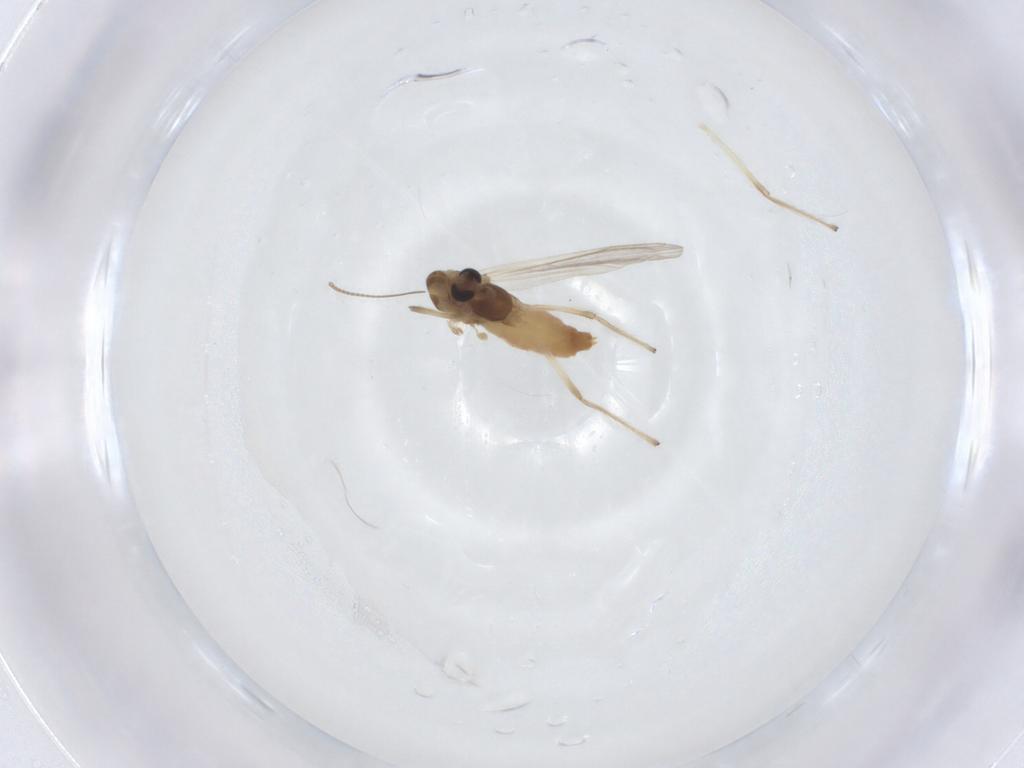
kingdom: Animalia
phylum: Arthropoda
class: Insecta
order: Diptera
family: Chironomidae
